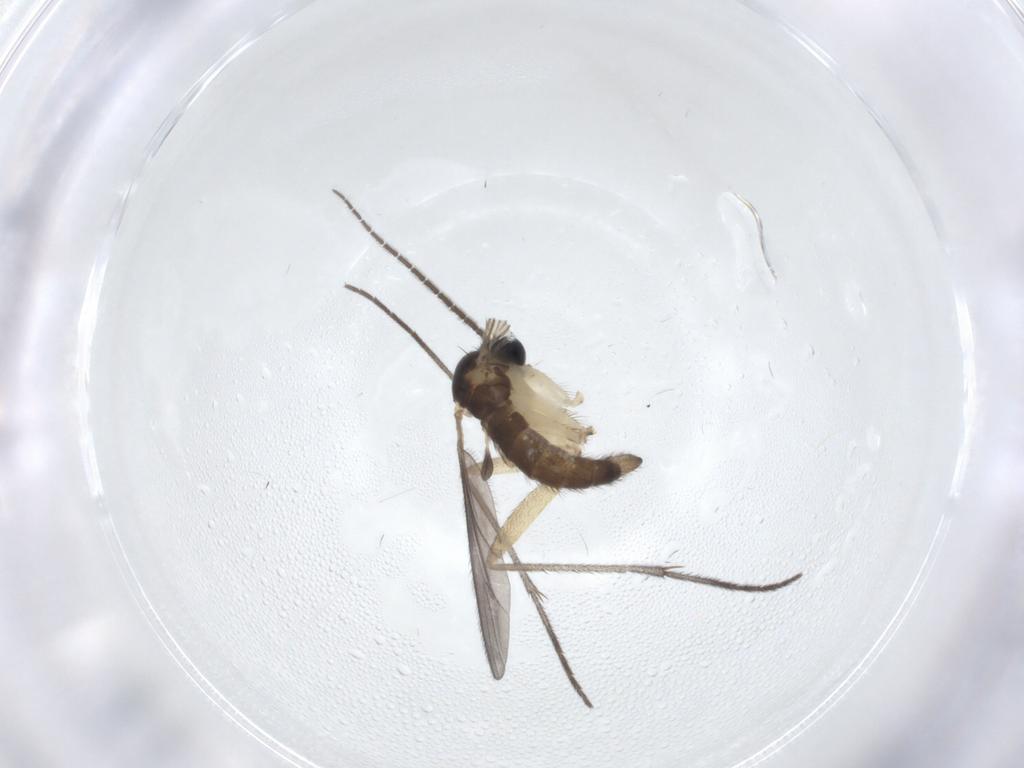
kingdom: Animalia
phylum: Arthropoda
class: Insecta
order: Diptera
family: Sciaridae
